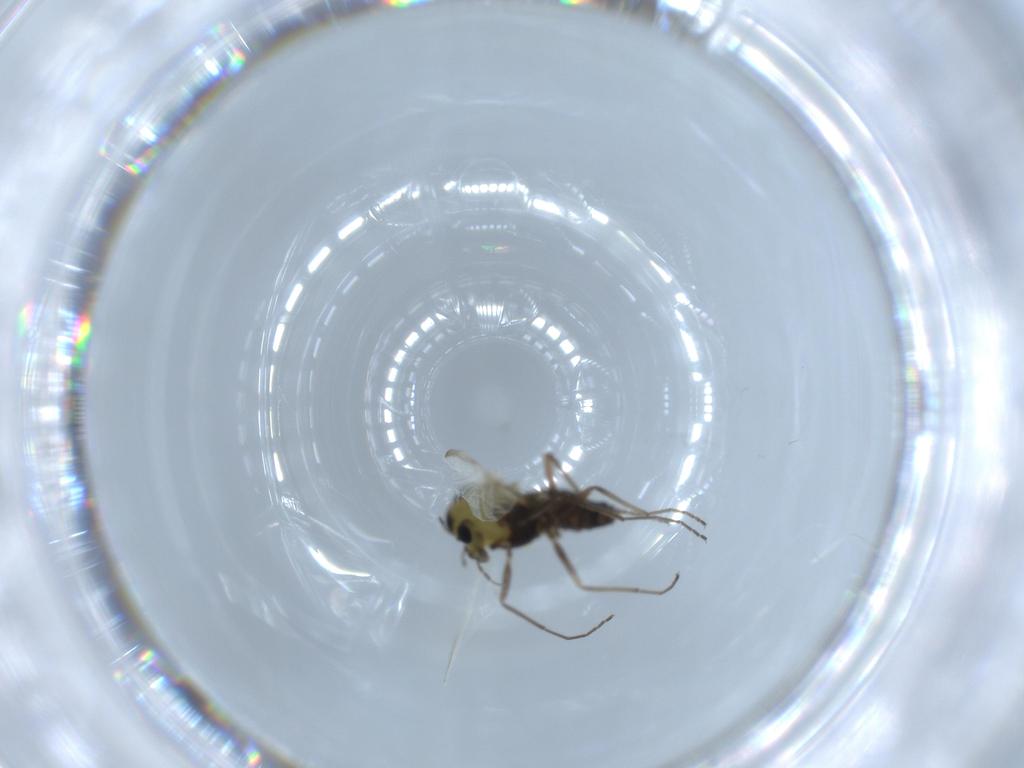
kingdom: Animalia
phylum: Arthropoda
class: Insecta
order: Diptera
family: Chironomidae
